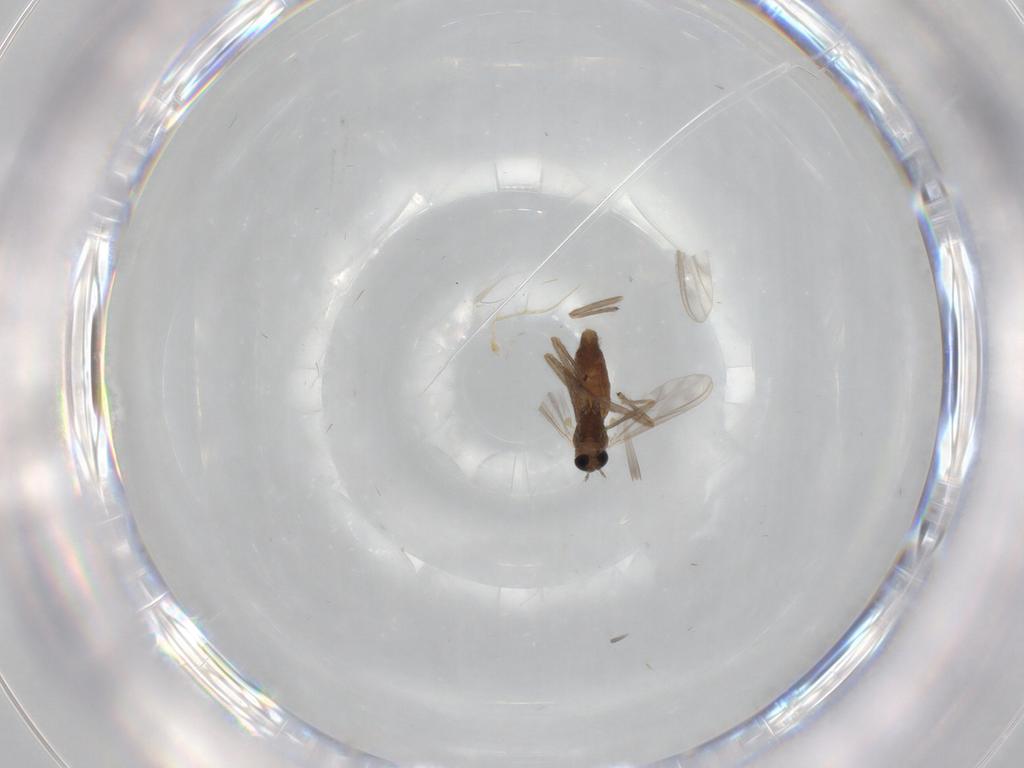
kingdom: Animalia
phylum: Arthropoda
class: Insecta
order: Diptera
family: Chironomidae
